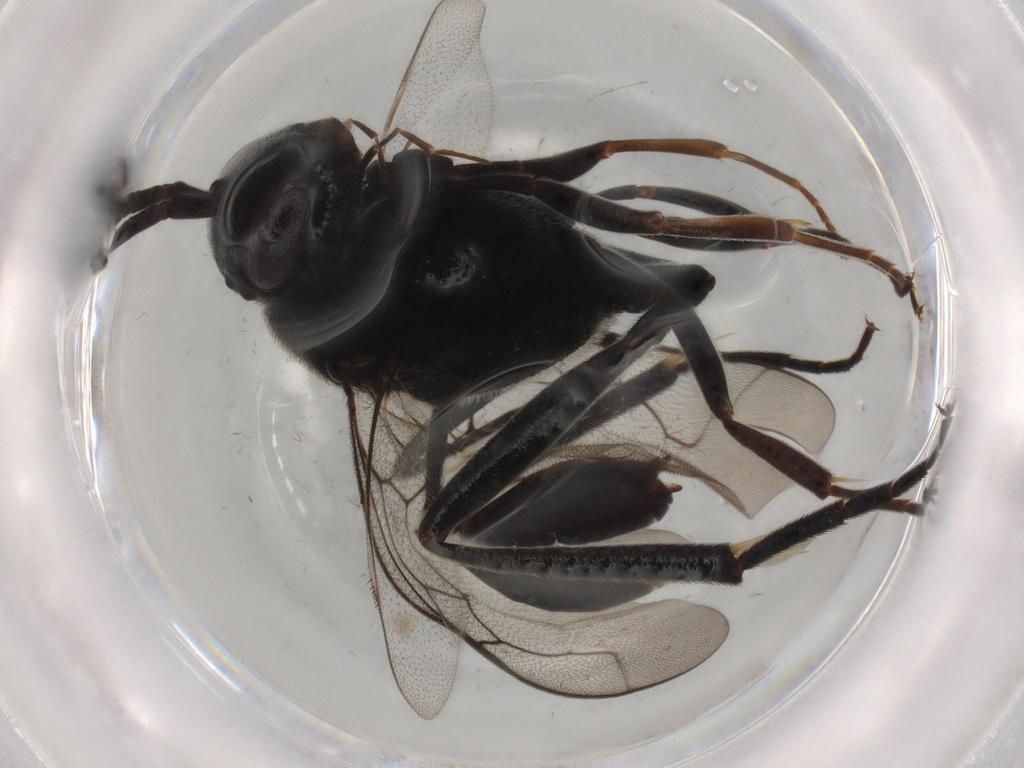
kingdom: Animalia
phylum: Arthropoda
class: Insecta
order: Hymenoptera
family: Evaniidae
